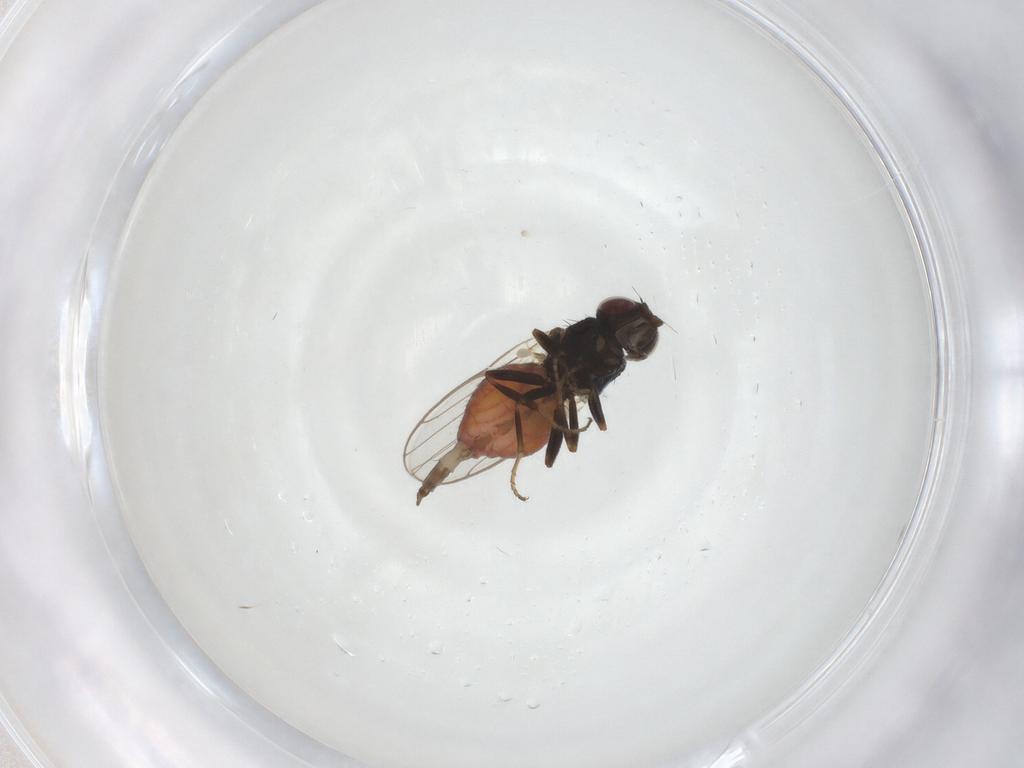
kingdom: Animalia
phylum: Arthropoda
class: Insecta
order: Diptera
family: Chloropidae
